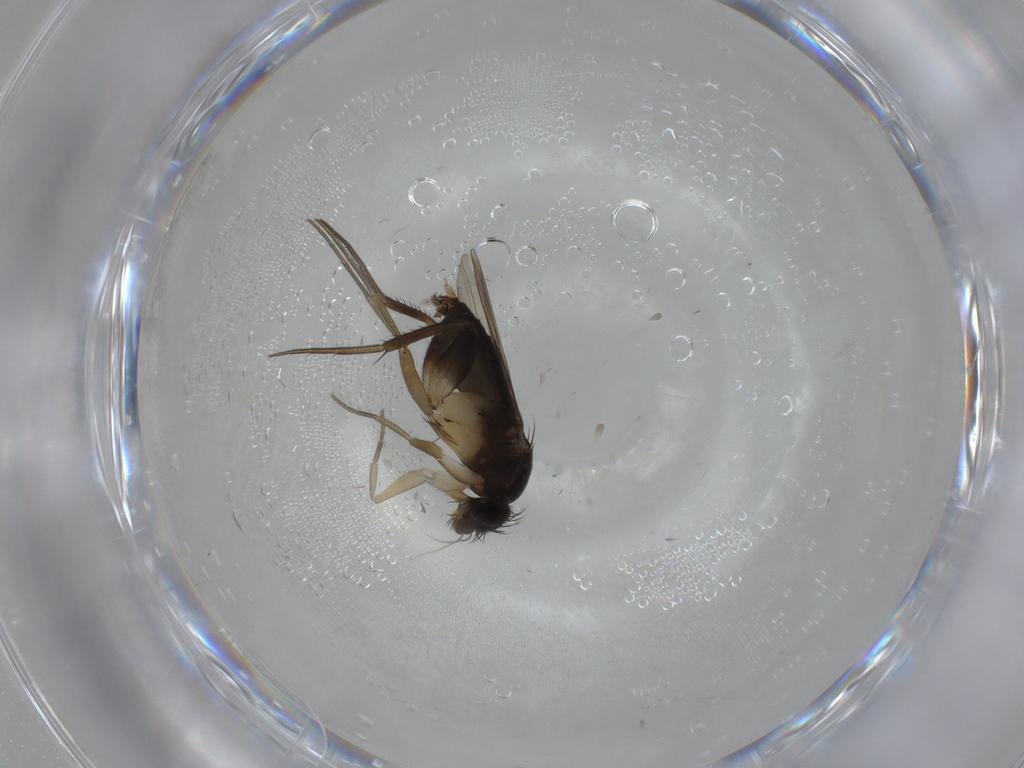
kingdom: Animalia
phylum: Arthropoda
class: Insecta
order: Diptera
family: Phoridae
